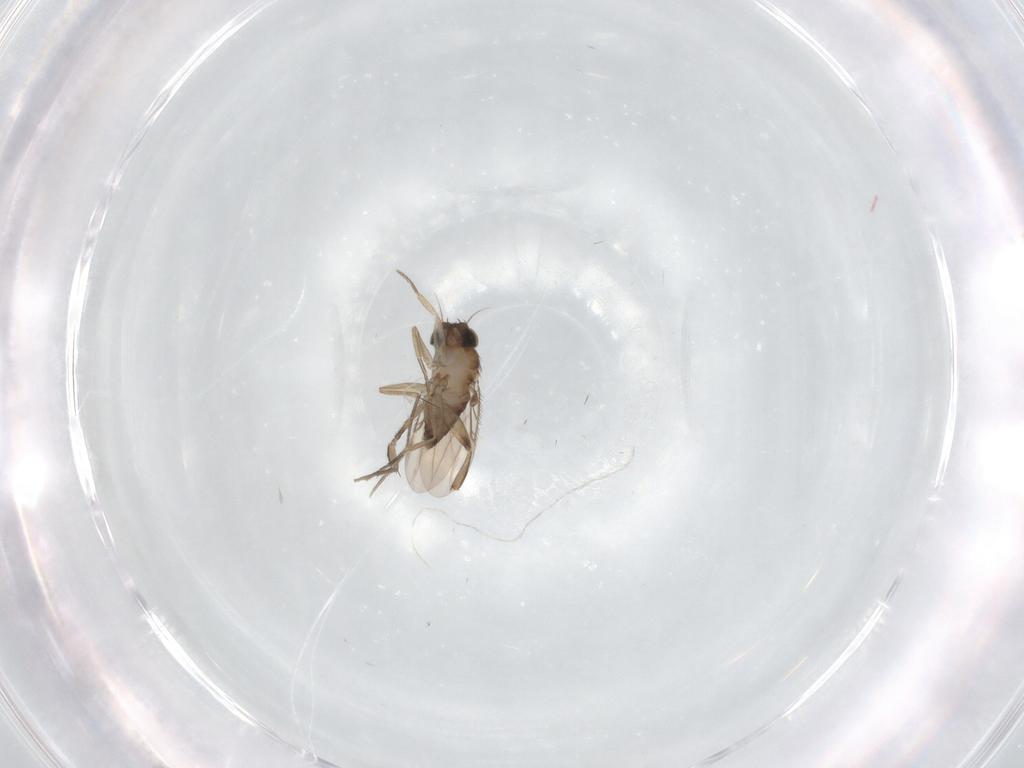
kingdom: Animalia
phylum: Arthropoda
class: Insecta
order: Diptera
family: Phoridae
